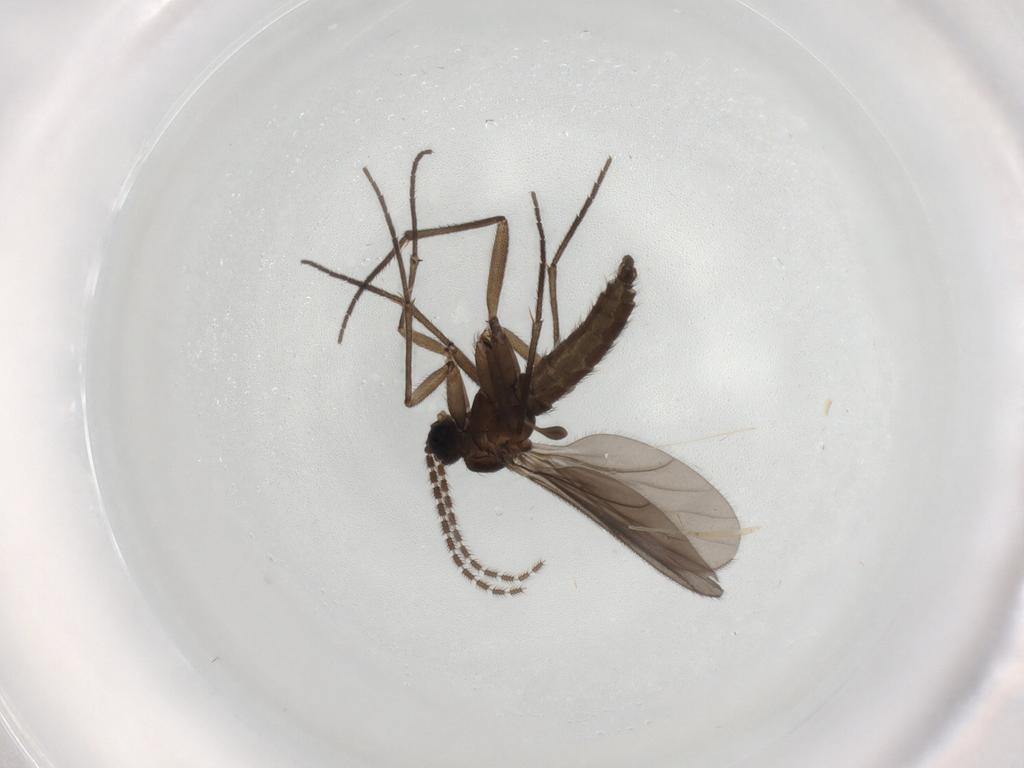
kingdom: Animalia
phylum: Arthropoda
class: Insecta
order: Diptera
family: Sciaridae
